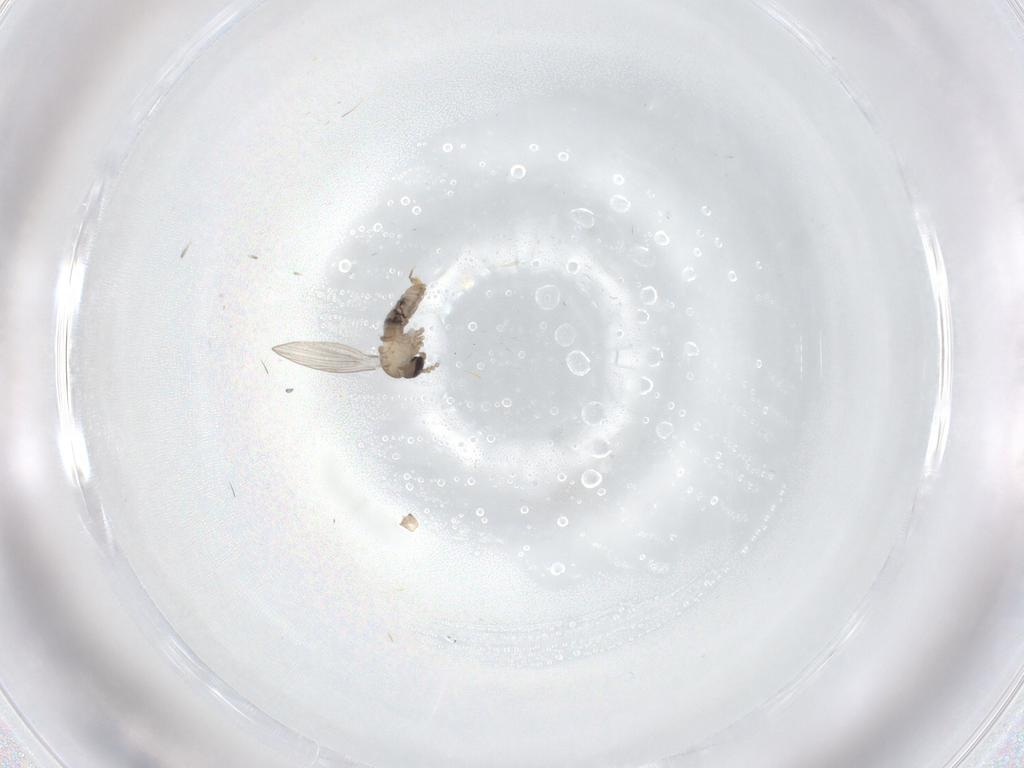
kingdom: Animalia
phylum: Arthropoda
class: Insecta
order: Diptera
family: Psychodidae
